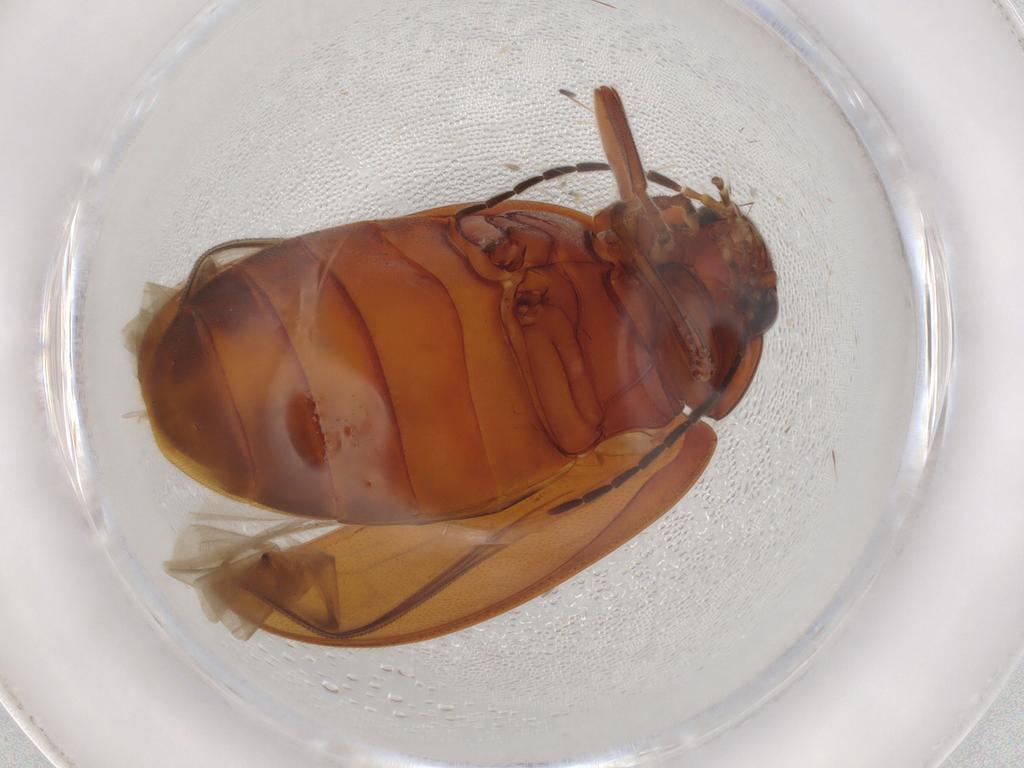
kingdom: Animalia
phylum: Arthropoda
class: Insecta
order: Coleoptera
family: Scirtidae
